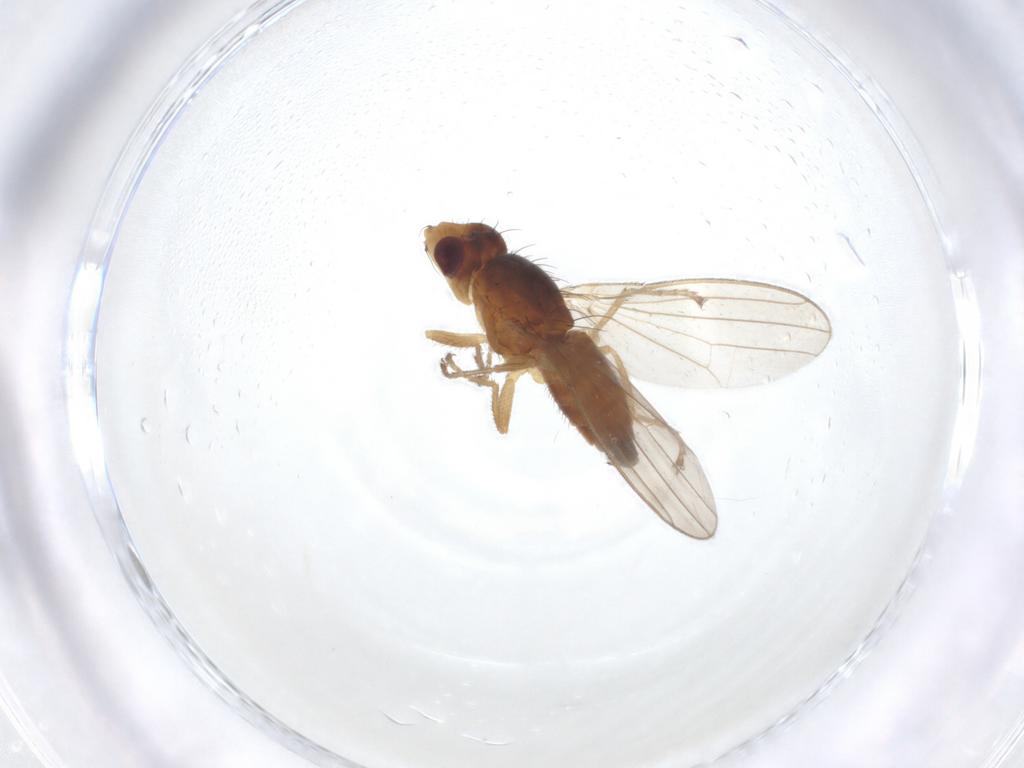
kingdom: Animalia
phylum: Arthropoda
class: Insecta
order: Diptera
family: Canacidae
